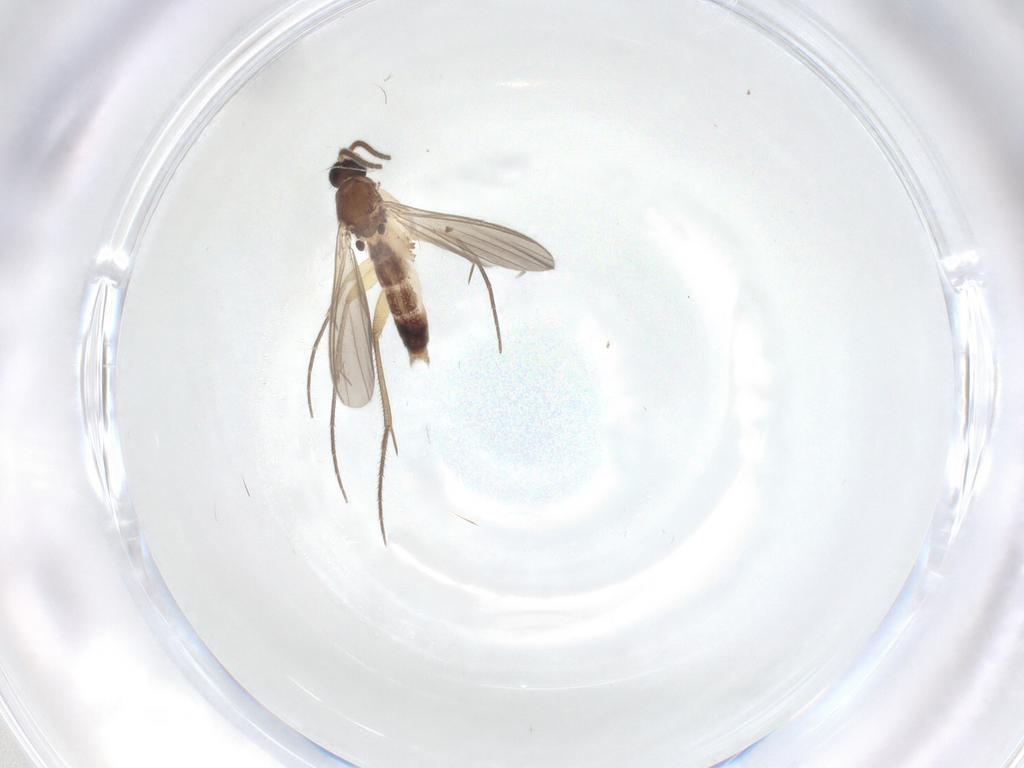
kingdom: Animalia
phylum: Arthropoda
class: Insecta
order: Diptera
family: Mycetophilidae
